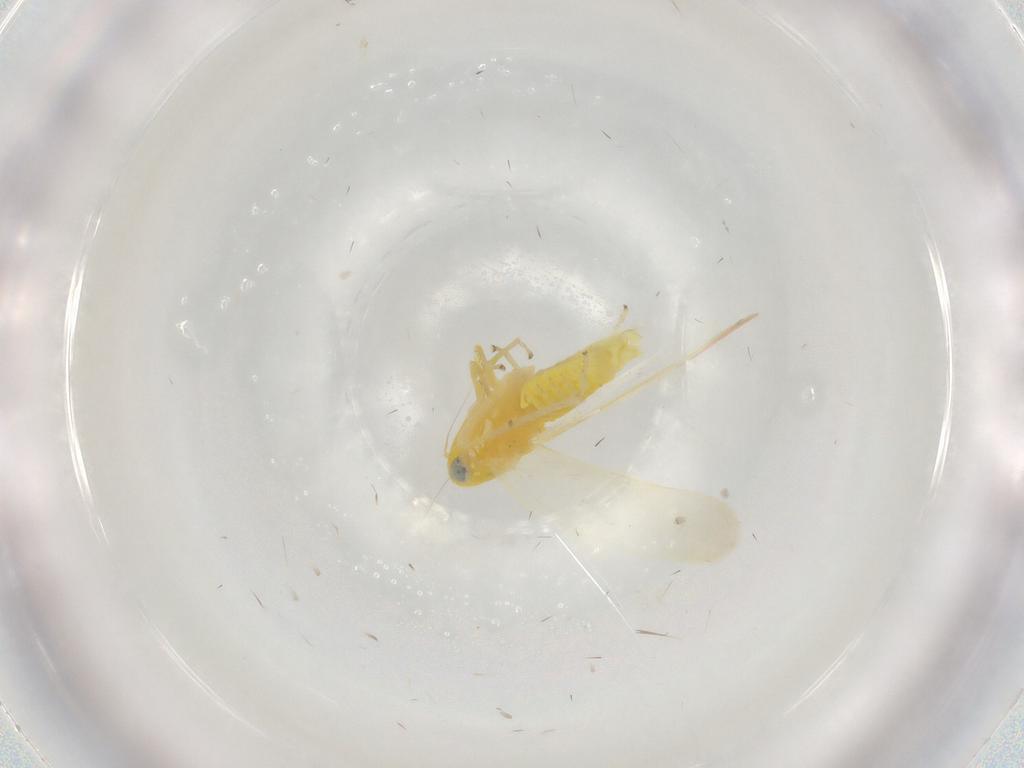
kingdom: Animalia
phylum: Arthropoda
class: Insecta
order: Hemiptera
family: Cicadellidae
